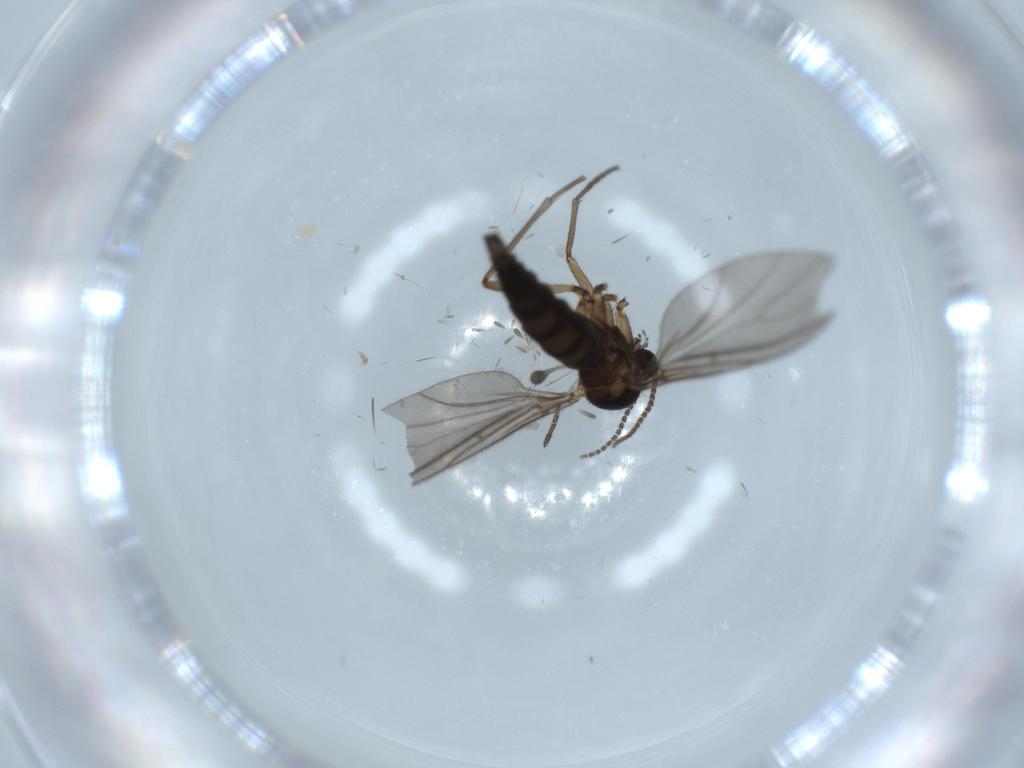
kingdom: Animalia
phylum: Arthropoda
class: Insecta
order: Diptera
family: Sciaridae
